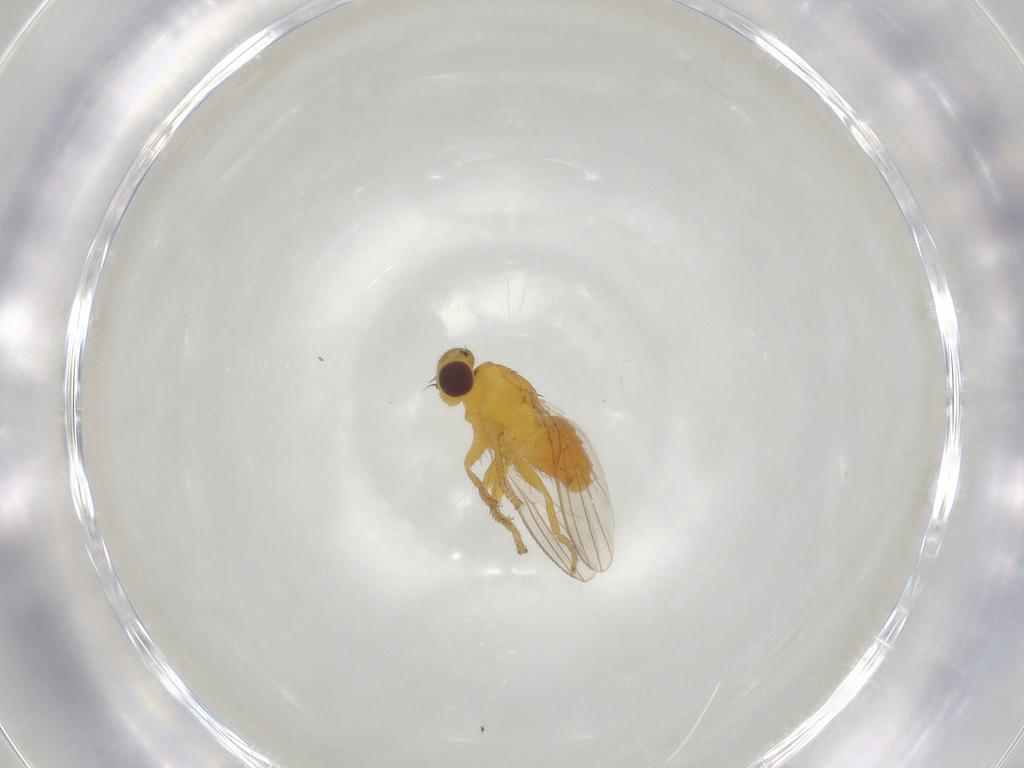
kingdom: Animalia
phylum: Arthropoda
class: Insecta
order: Diptera
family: Fergusoninidae
